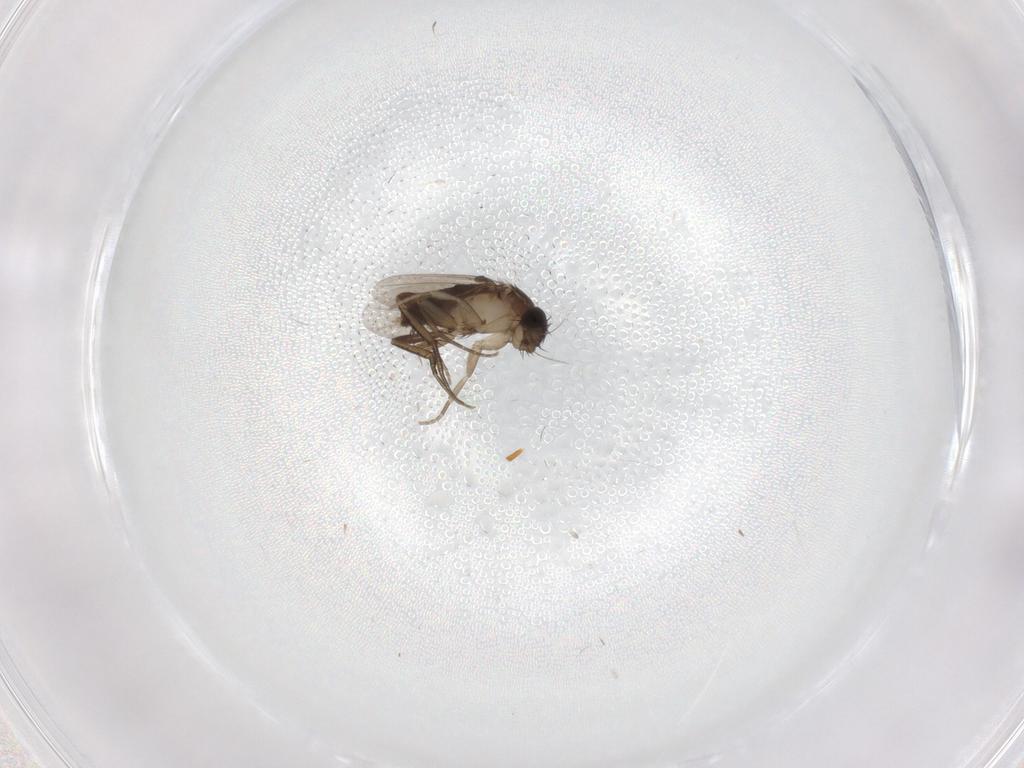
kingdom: Animalia
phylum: Arthropoda
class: Insecta
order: Diptera
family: Phoridae
